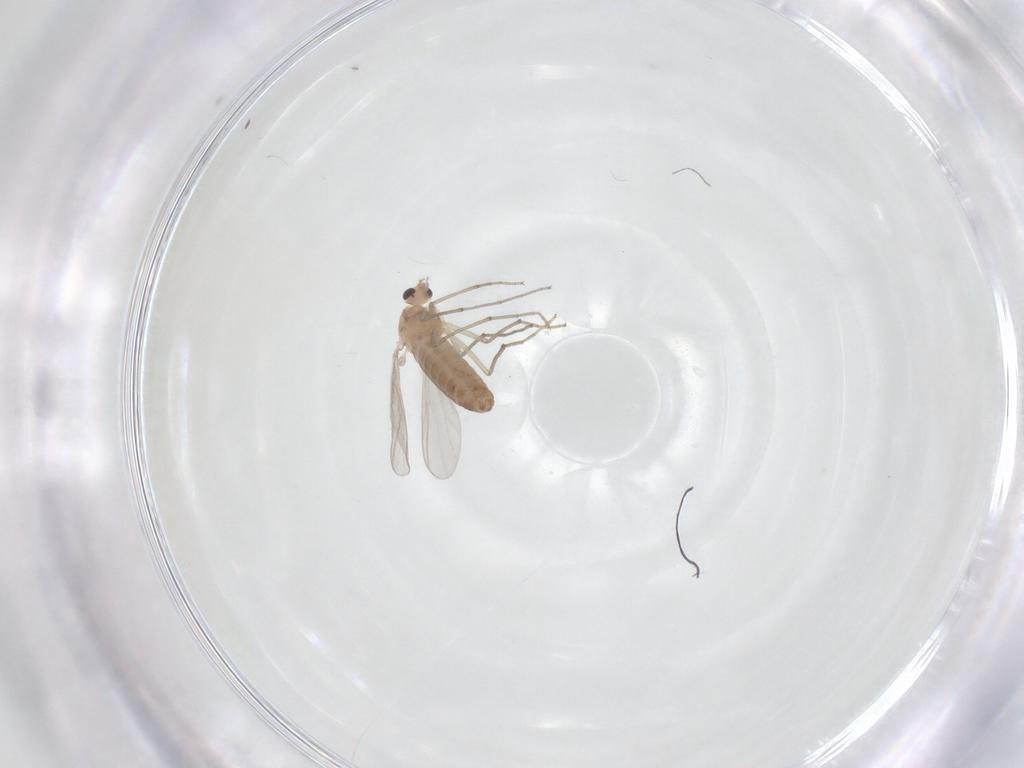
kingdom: Animalia
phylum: Arthropoda
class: Insecta
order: Diptera
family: Chironomidae
